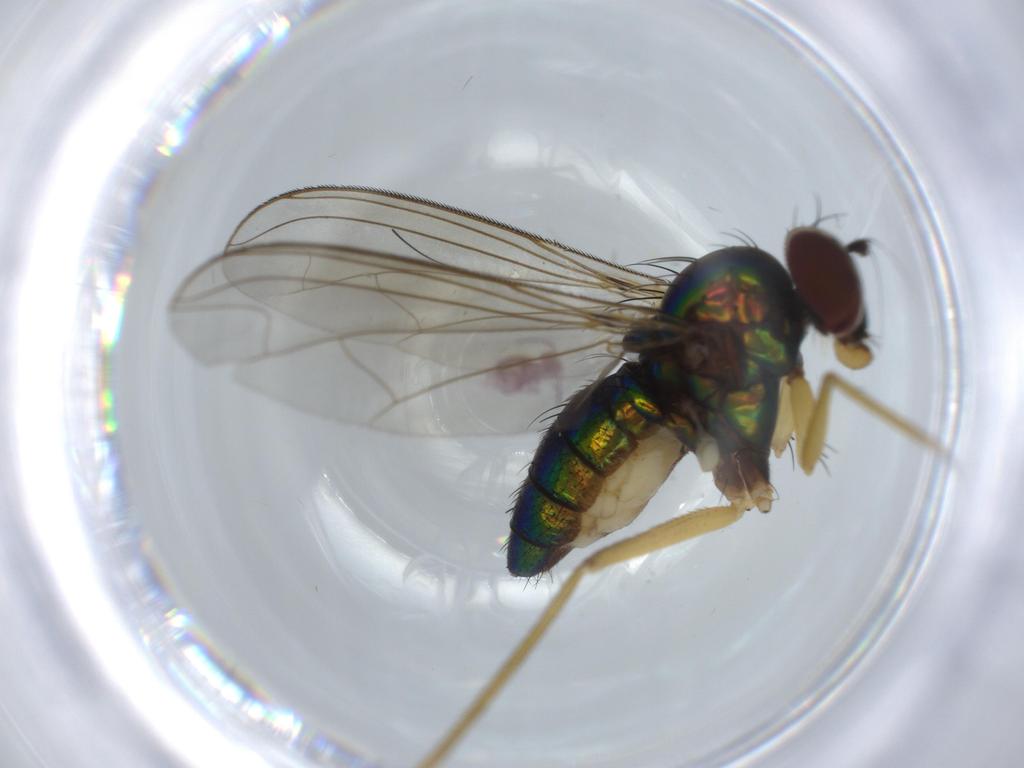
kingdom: Animalia
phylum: Arthropoda
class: Insecta
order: Diptera
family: Dolichopodidae
